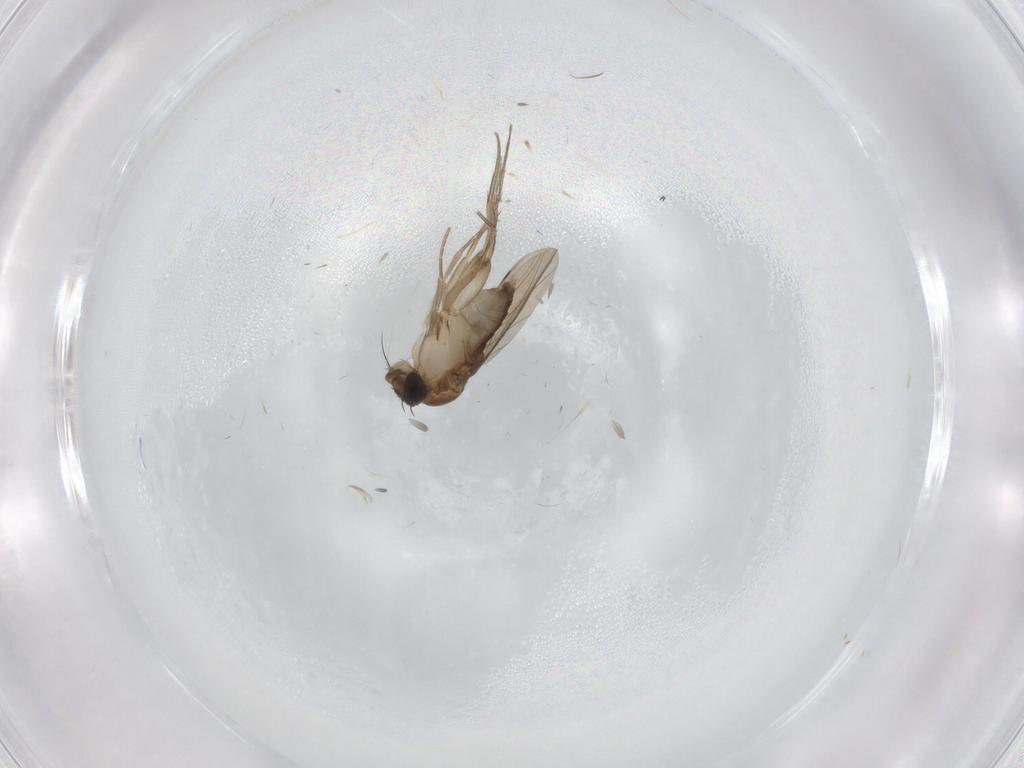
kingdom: Animalia
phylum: Arthropoda
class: Insecta
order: Diptera
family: Phoridae
